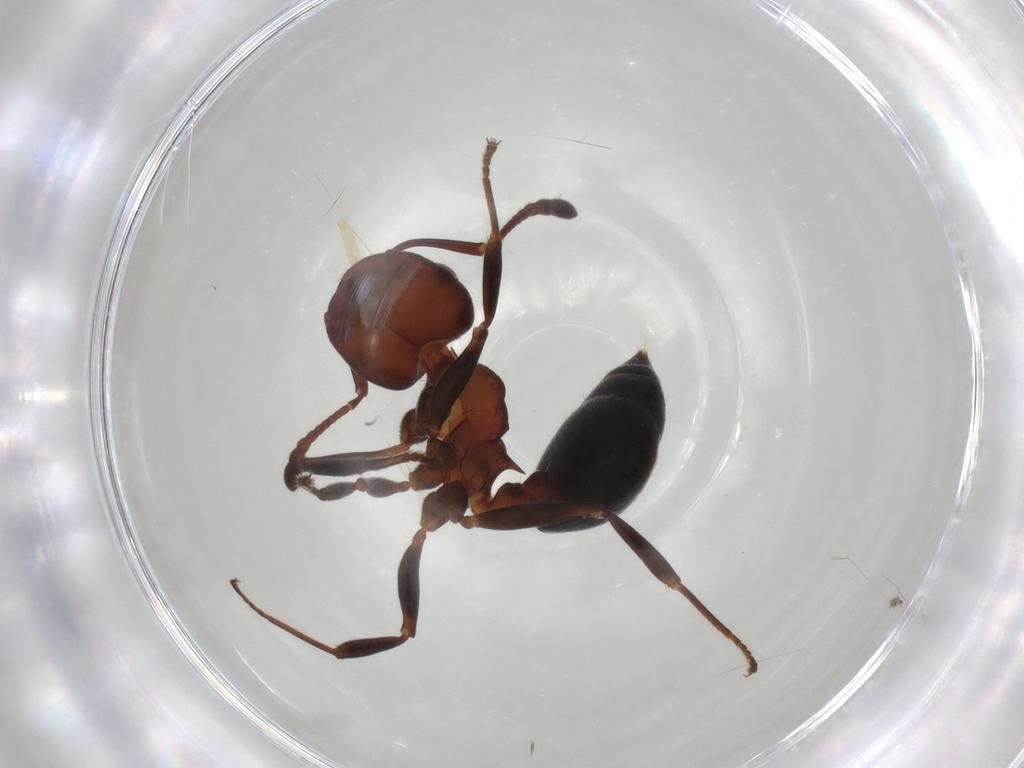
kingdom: Animalia
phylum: Arthropoda
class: Insecta
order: Hymenoptera
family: Formicidae
